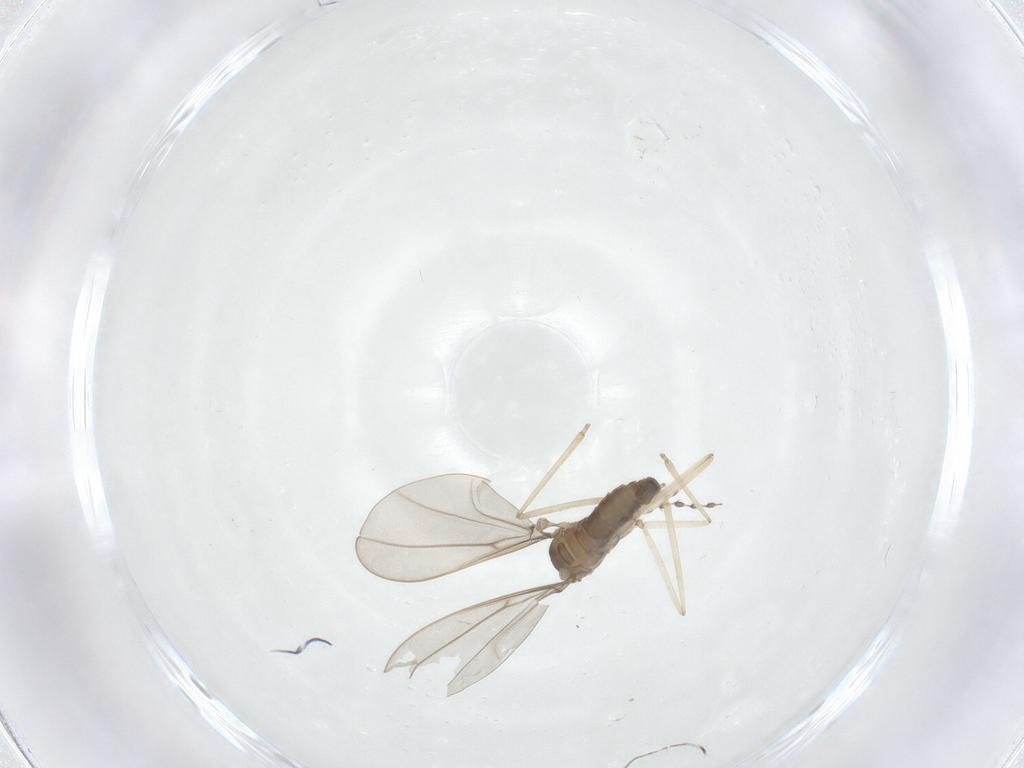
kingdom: Animalia
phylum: Arthropoda
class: Insecta
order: Diptera
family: Cecidomyiidae
